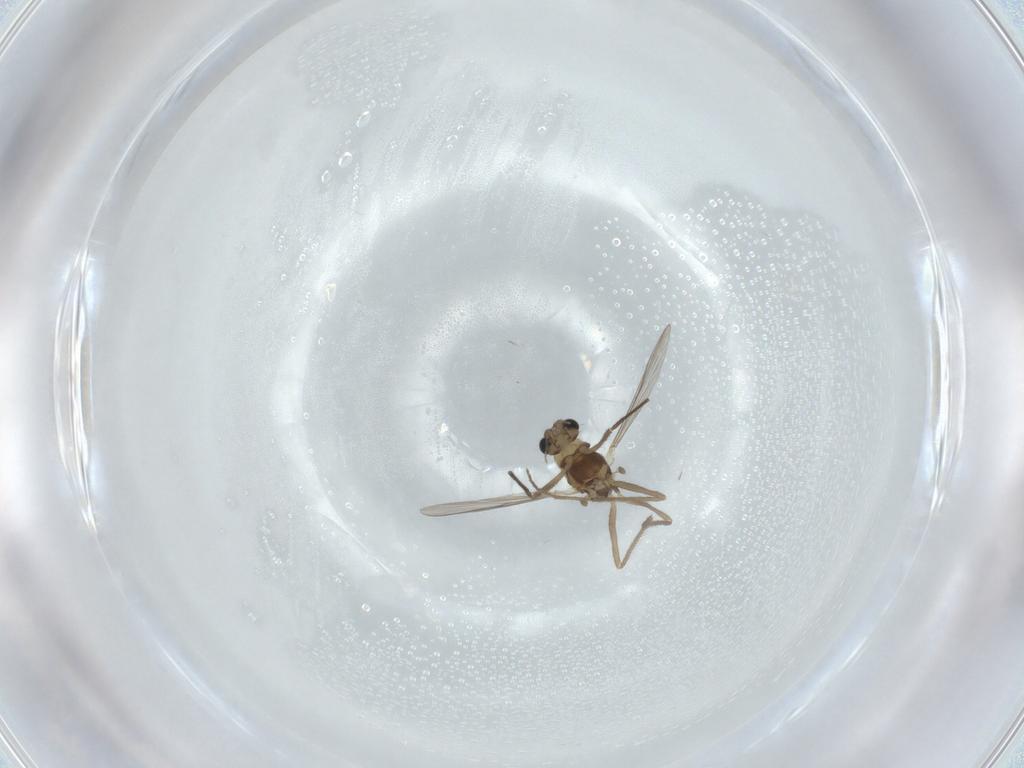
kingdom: Animalia
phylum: Arthropoda
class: Insecta
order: Diptera
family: Chironomidae
